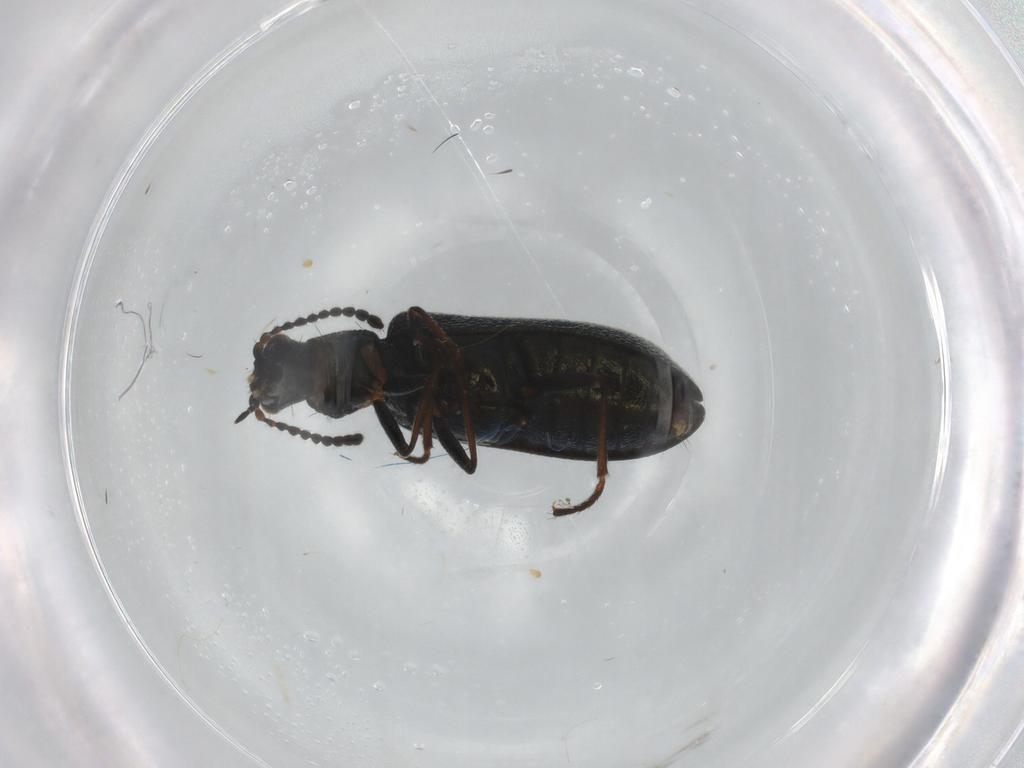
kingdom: Animalia
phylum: Arthropoda
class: Insecta
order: Coleoptera
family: Melyridae
